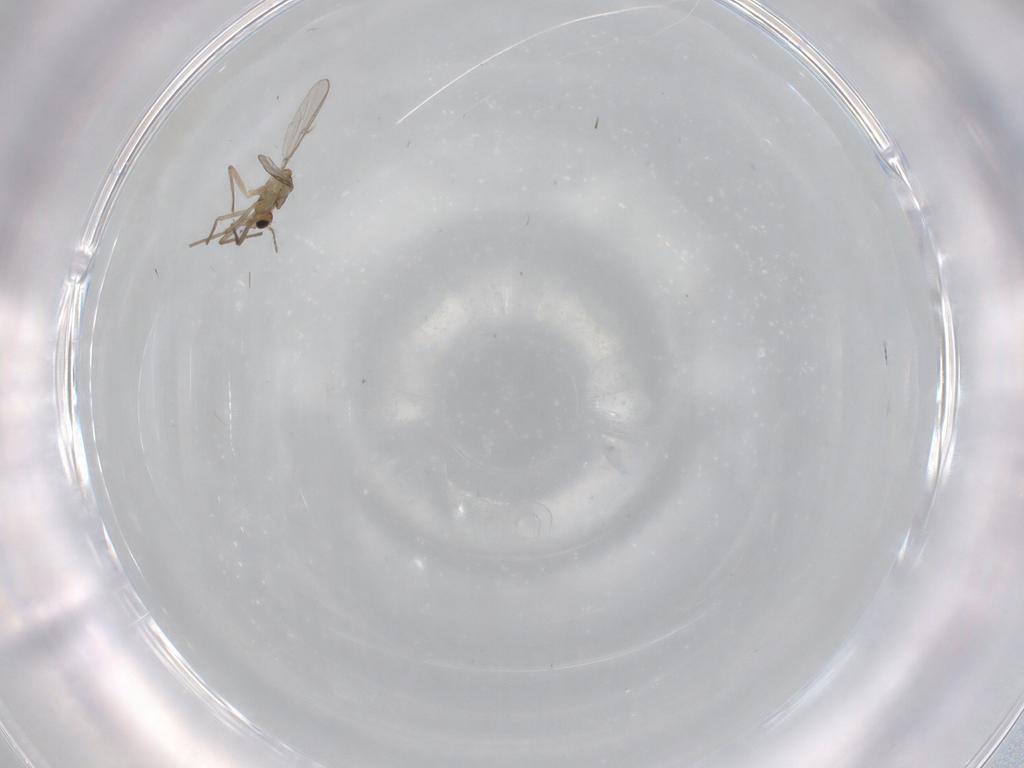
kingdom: Animalia
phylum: Arthropoda
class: Insecta
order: Diptera
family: Chironomidae
